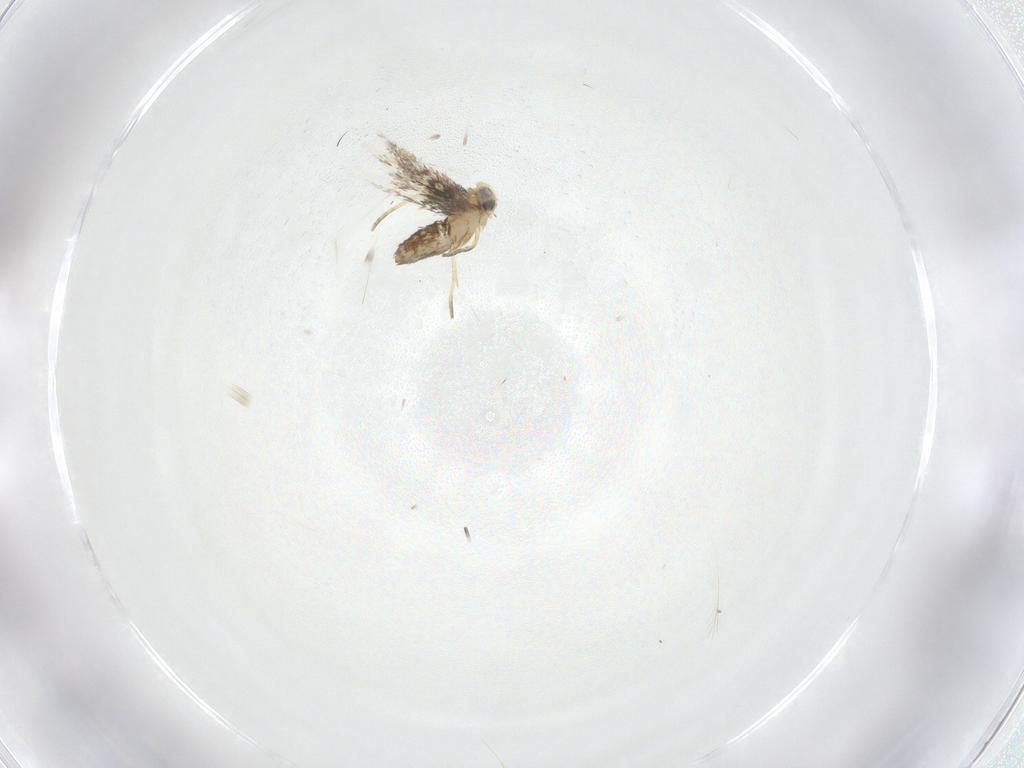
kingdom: Animalia
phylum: Arthropoda
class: Insecta
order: Lepidoptera
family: Nepticulidae
